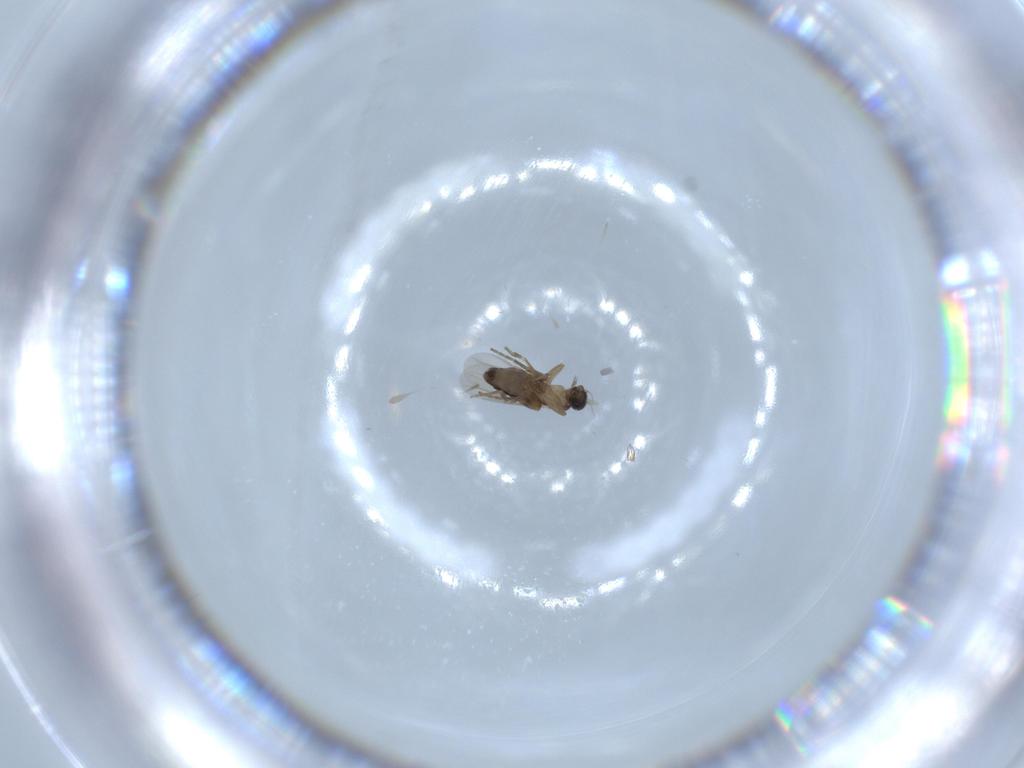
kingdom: Animalia
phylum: Arthropoda
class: Insecta
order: Diptera
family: Phoridae
